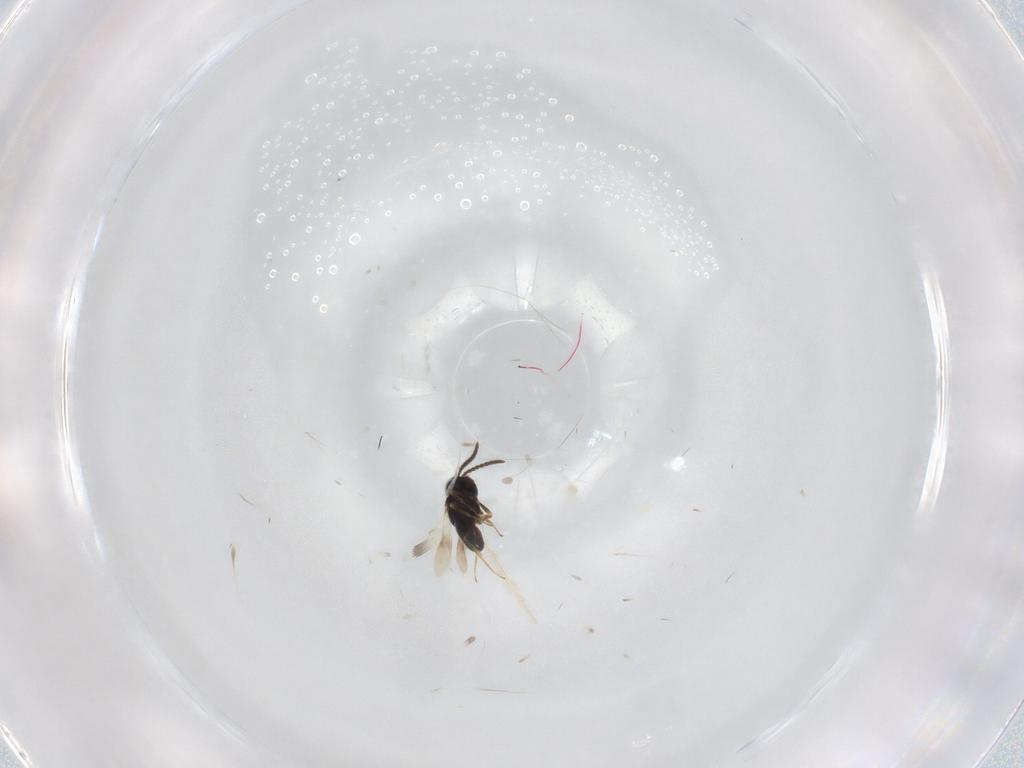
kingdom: Animalia
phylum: Arthropoda
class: Insecta
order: Hymenoptera
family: Scelionidae
